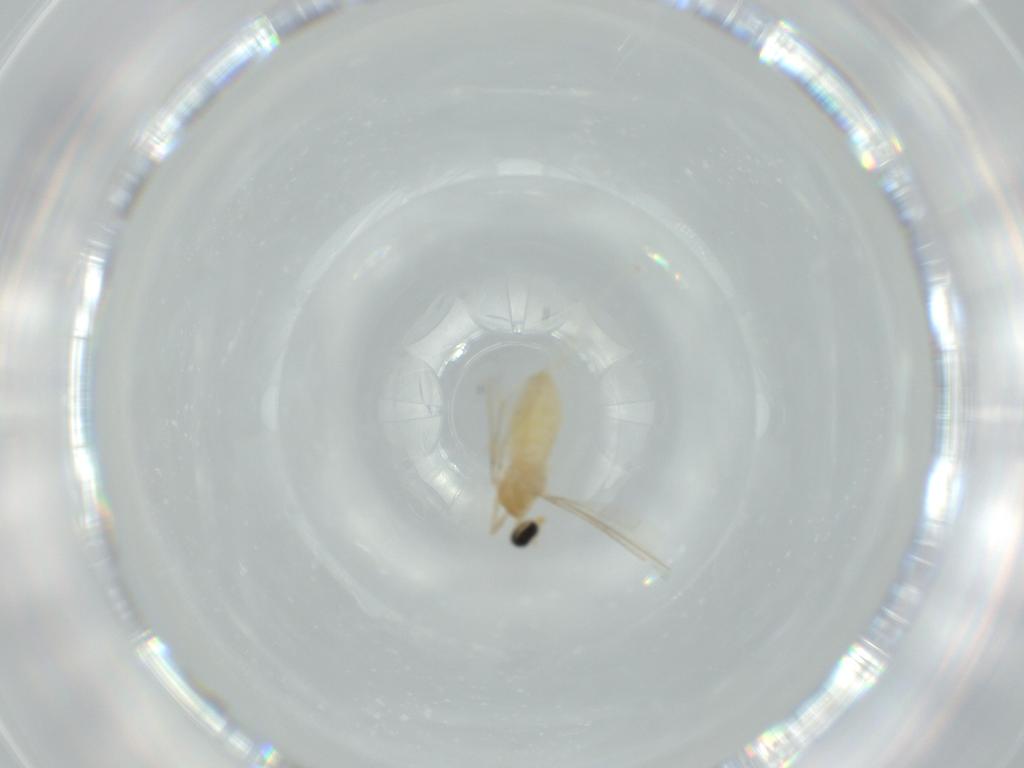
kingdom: Animalia
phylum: Arthropoda
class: Insecta
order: Diptera
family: Cecidomyiidae
